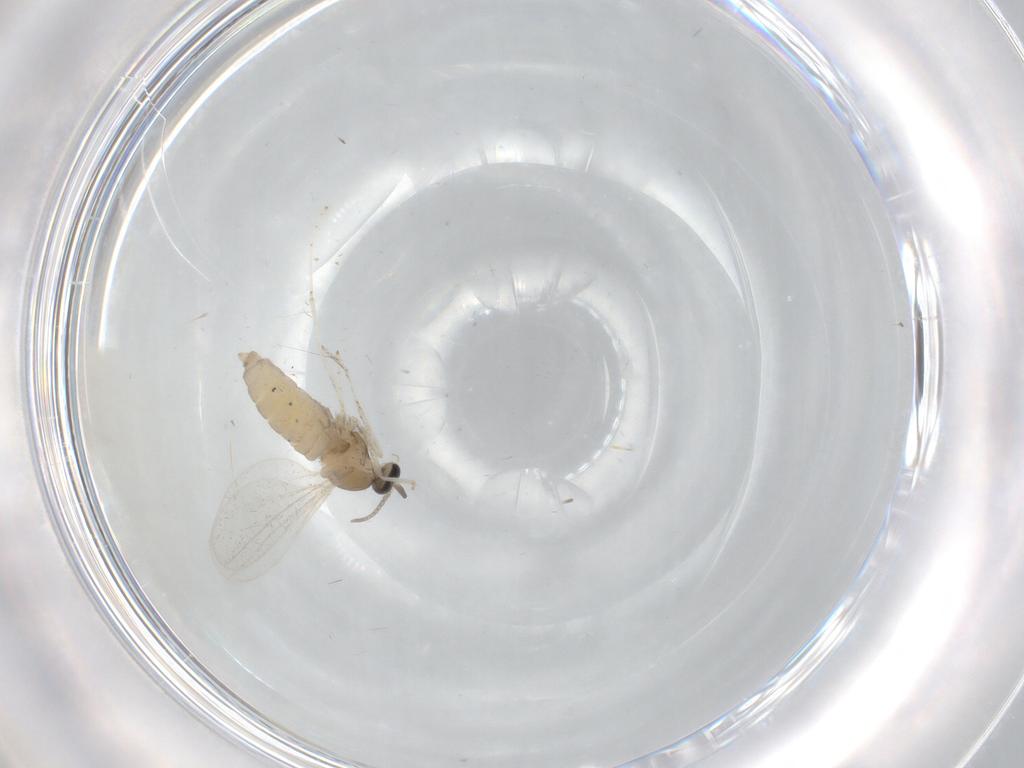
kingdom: Animalia
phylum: Arthropoda
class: Insecta
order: Diptera
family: Cecidomyiidae
